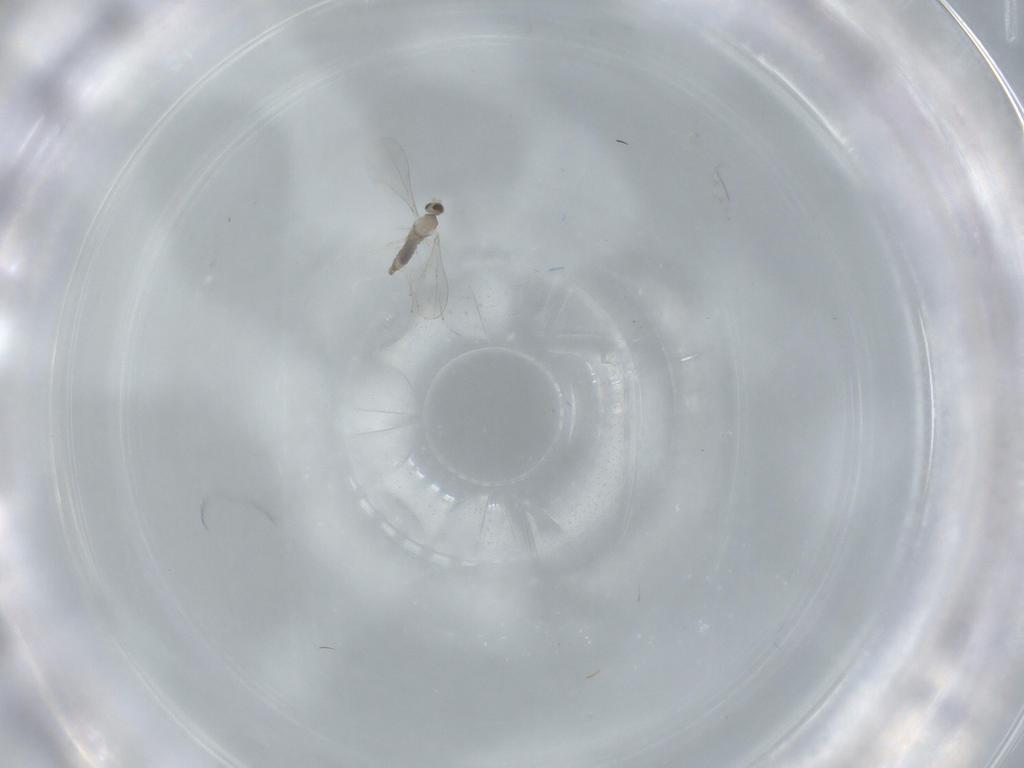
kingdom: Animalia
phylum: Arthropoda
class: Insecta
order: Diptera
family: Cecidomyiidae
